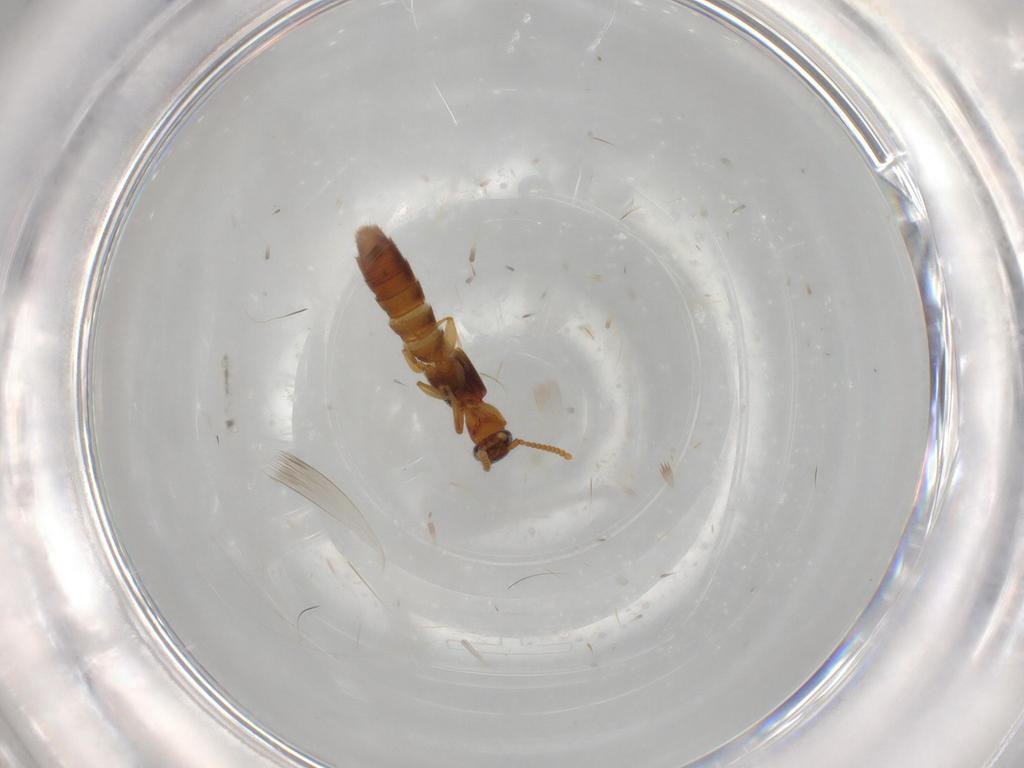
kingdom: Animalia
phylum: Arthropoda
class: Insecta
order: Coleoptera
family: Staphylinidae
